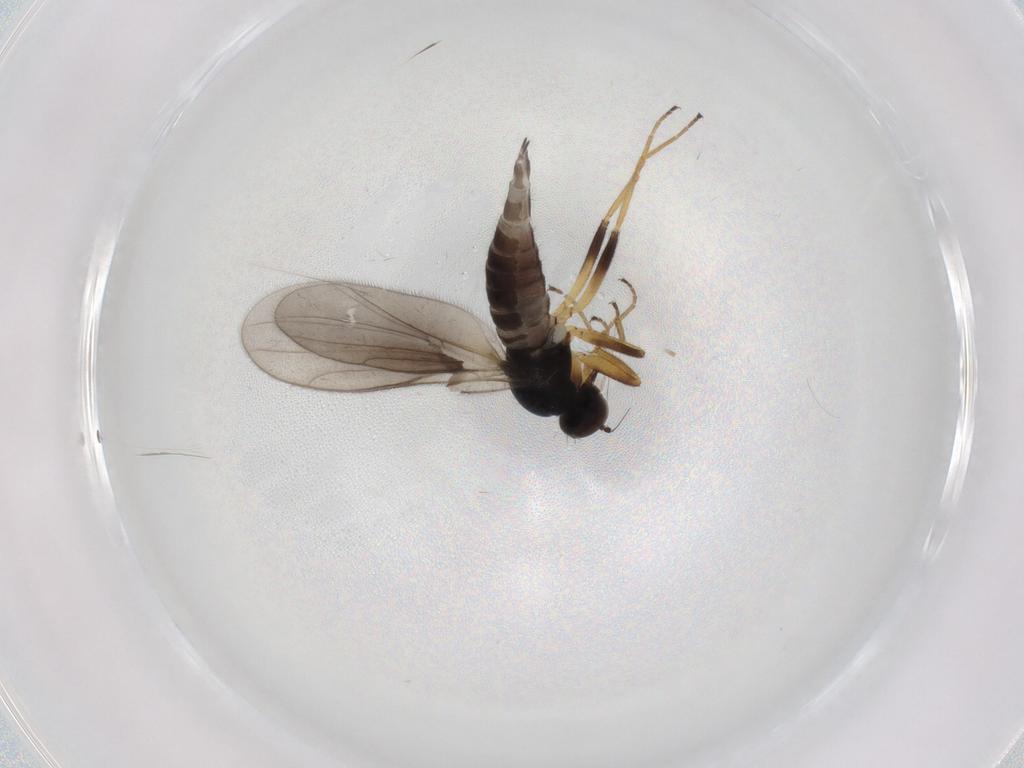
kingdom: Animalia
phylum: Arthropoda
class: Insecta
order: Diptera
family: Hybotidae
